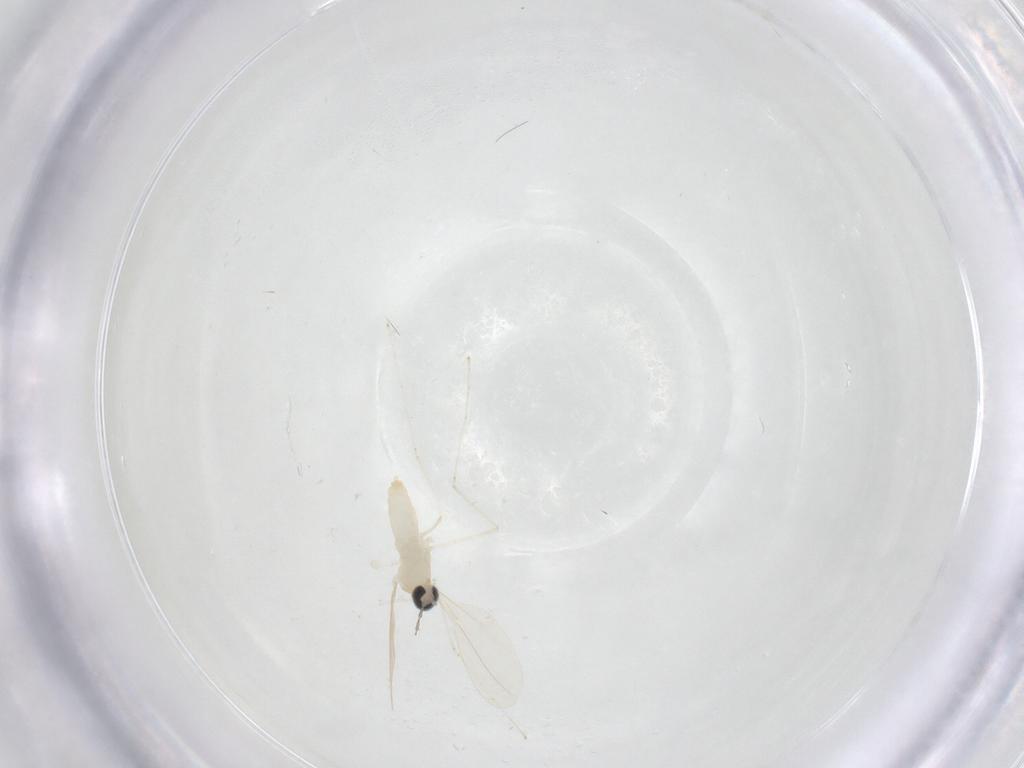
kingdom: Animalia
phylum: Arthropoda
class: Insecta
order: Diptera
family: Cecidomyiidae
